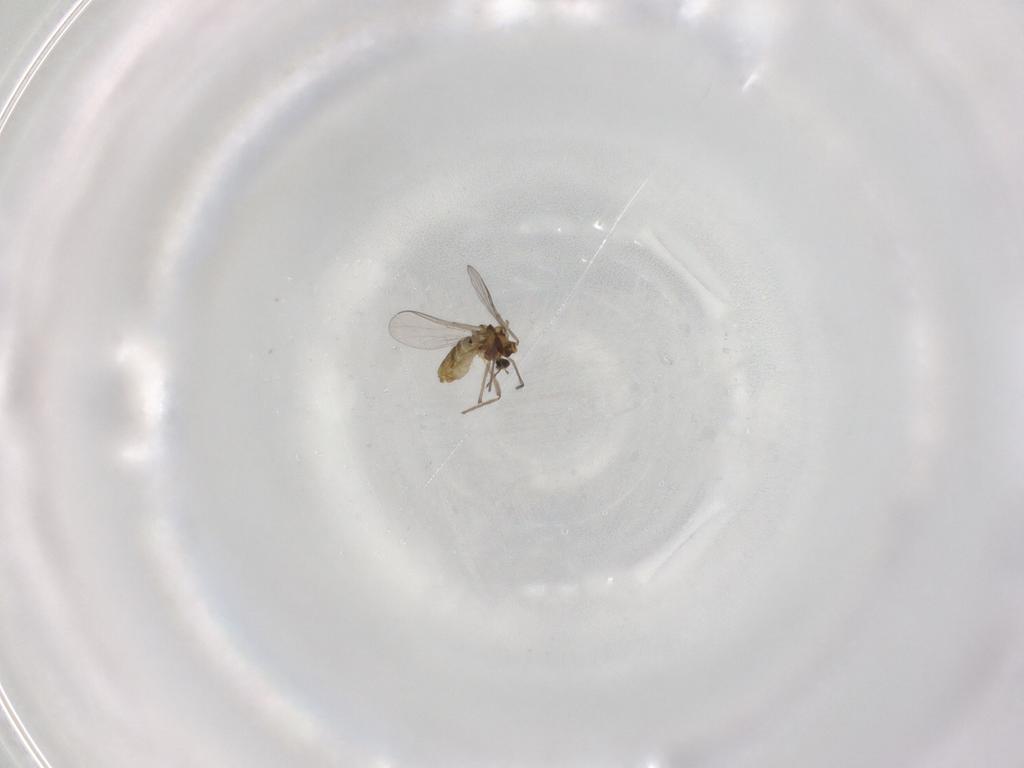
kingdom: Animalia
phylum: Arthropoda
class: Insecta
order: Diptera
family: Chironomidae
